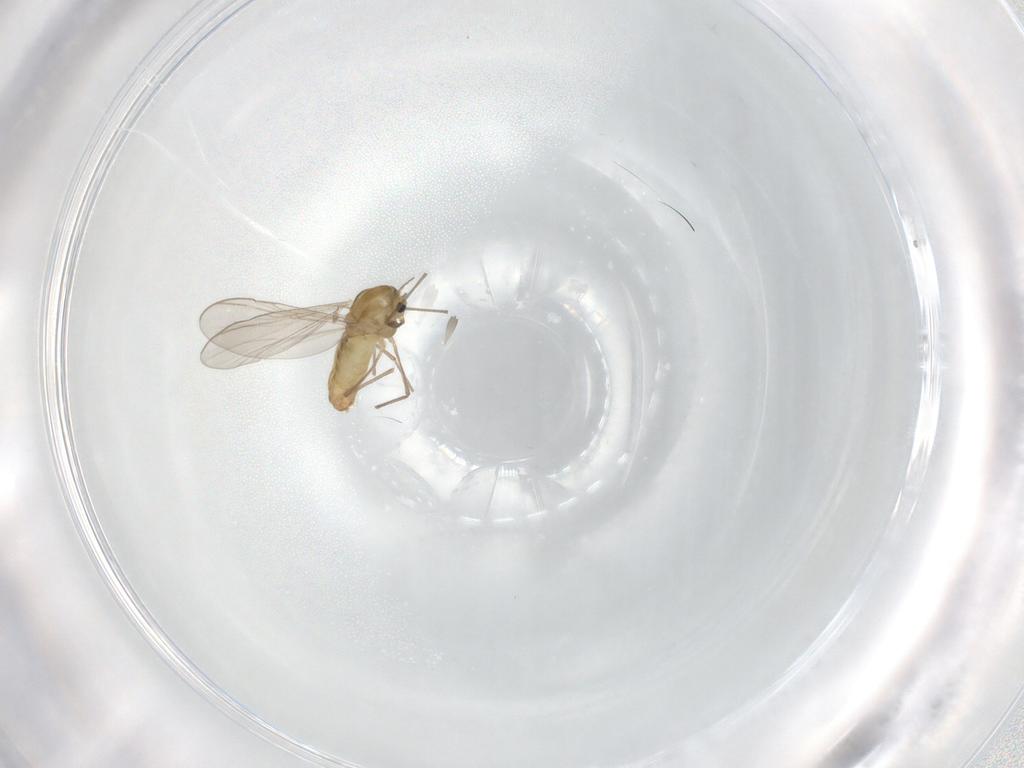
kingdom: Animalia
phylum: Arthropoda
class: Insecta
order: Diptera
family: Chironomidae
